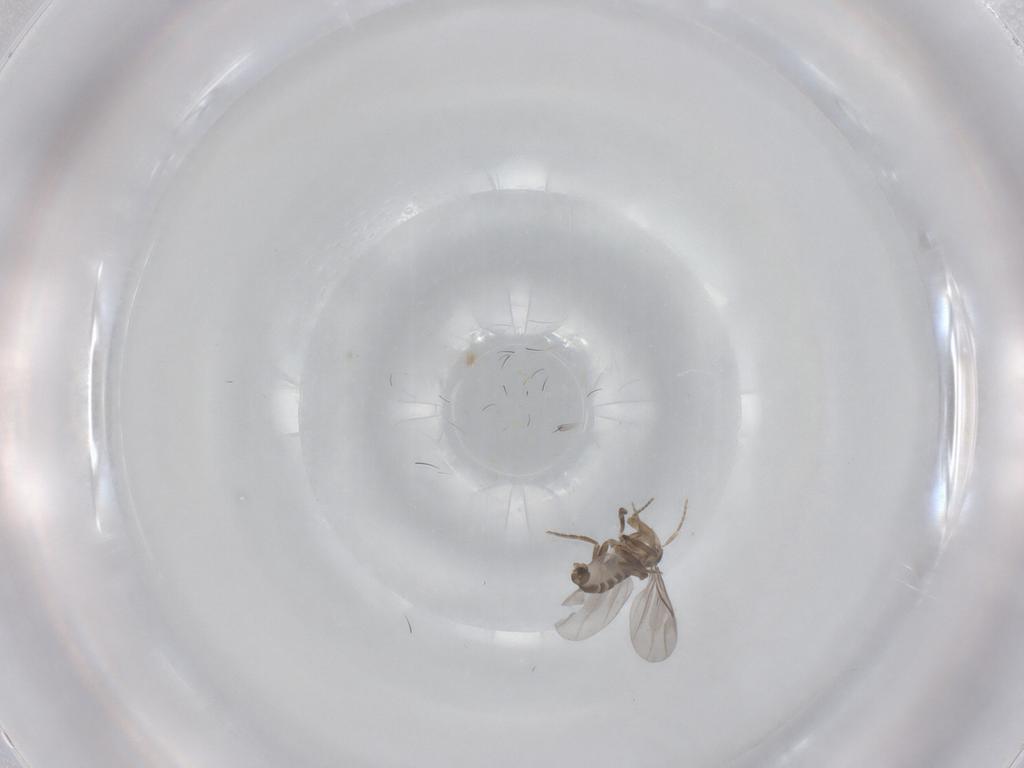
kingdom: Animalia
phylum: Arthropoda
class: Insecta
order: Diptera
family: Phoridae
